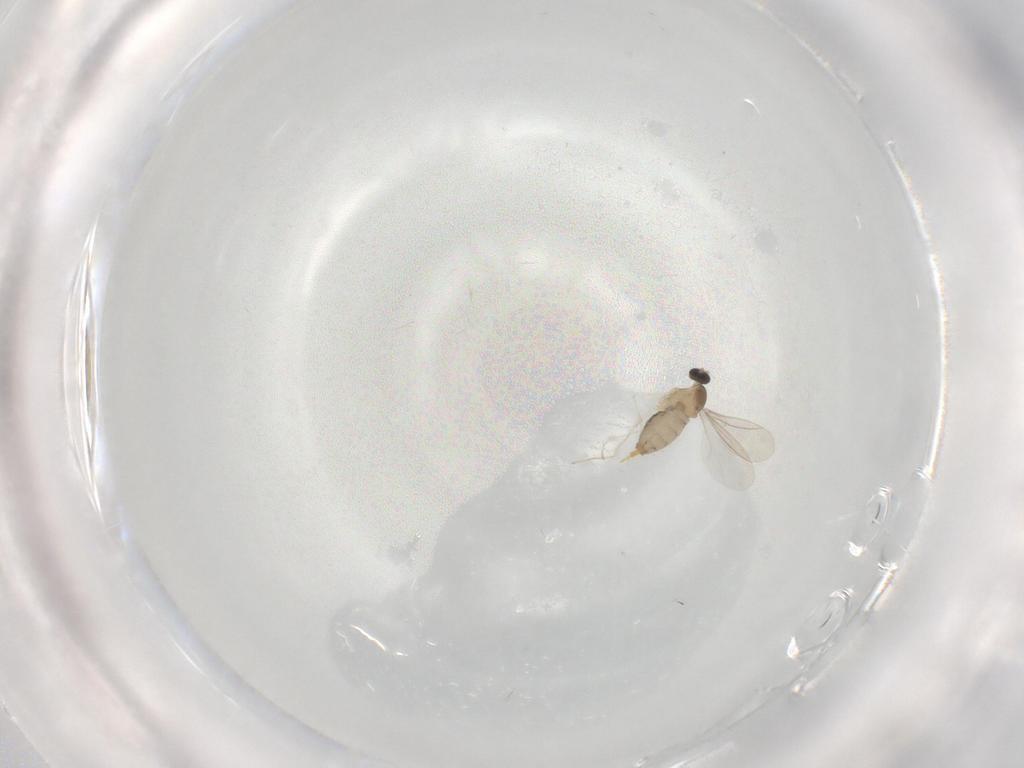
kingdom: Animalia
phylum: Arthropoda
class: Insecta
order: Diptera
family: Cecidomyiidae
